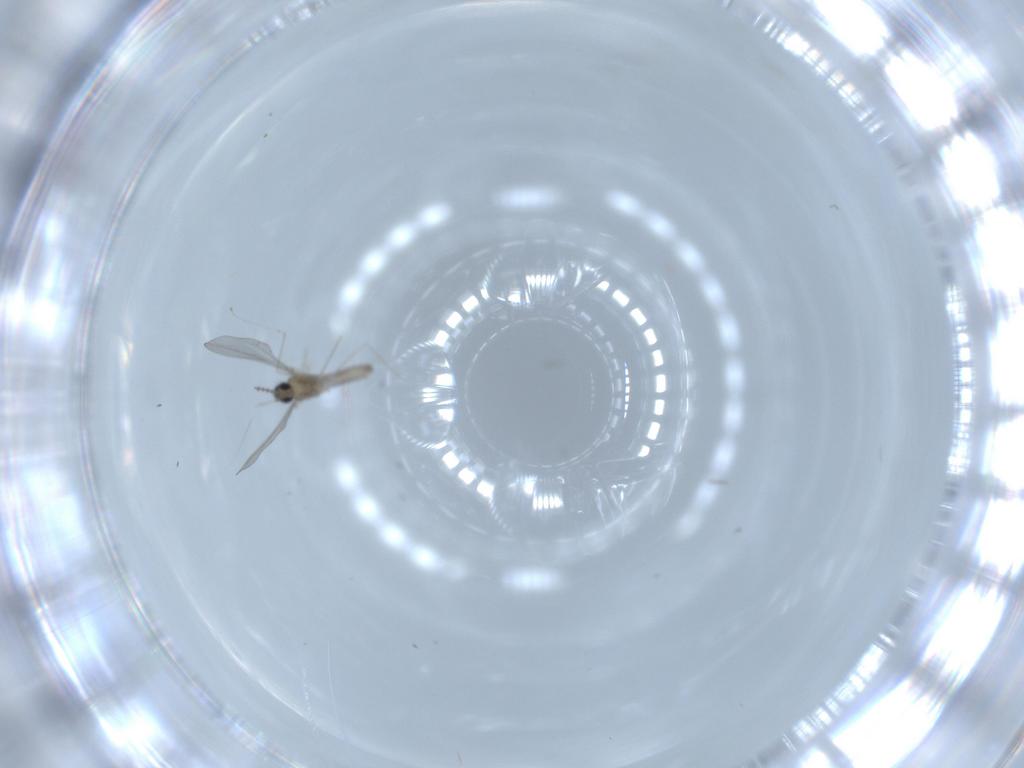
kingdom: Animalia
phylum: Arthropoda
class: Insecta
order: Diptera
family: Cecidomyiidae
